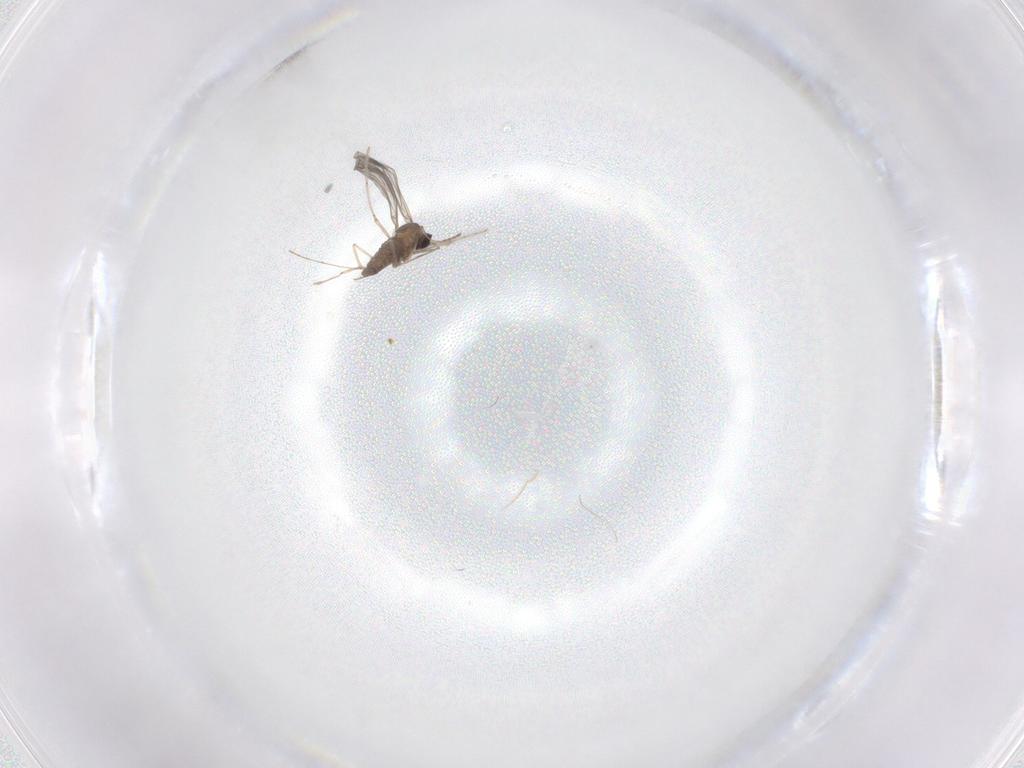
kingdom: Animalia
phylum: Arthropoda
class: Insecta
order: Diptera
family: Cecidomyiidae
